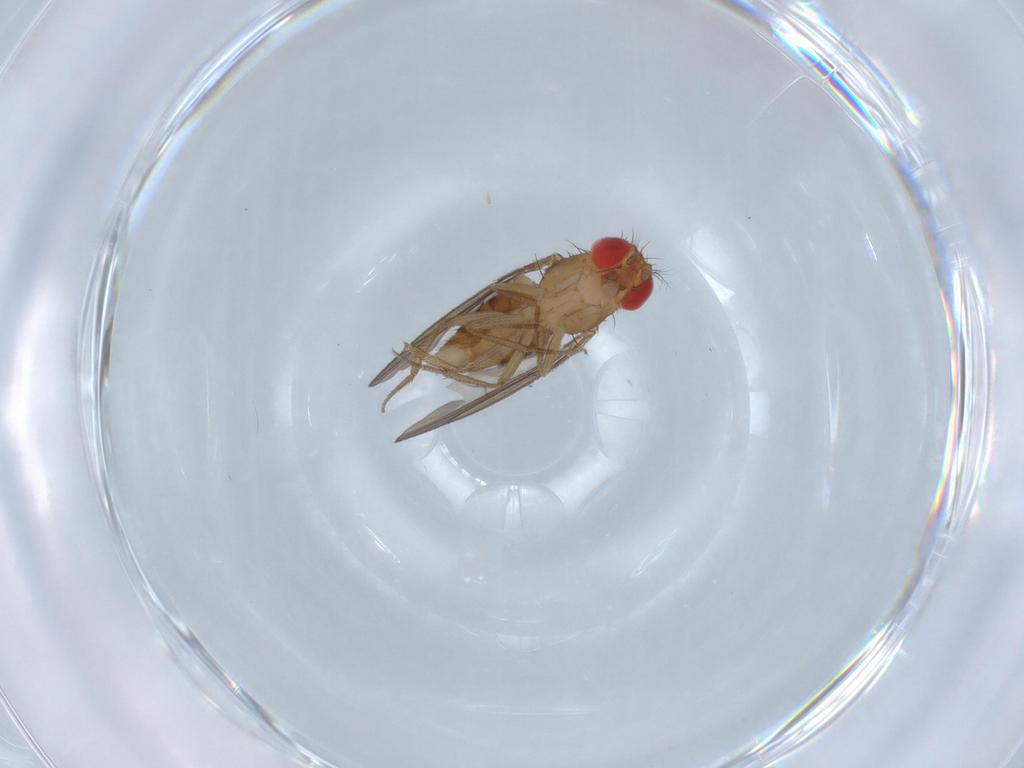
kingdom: Animalia
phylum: Arthropoda
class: Insecta
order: Diptera
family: Drosophilidae
